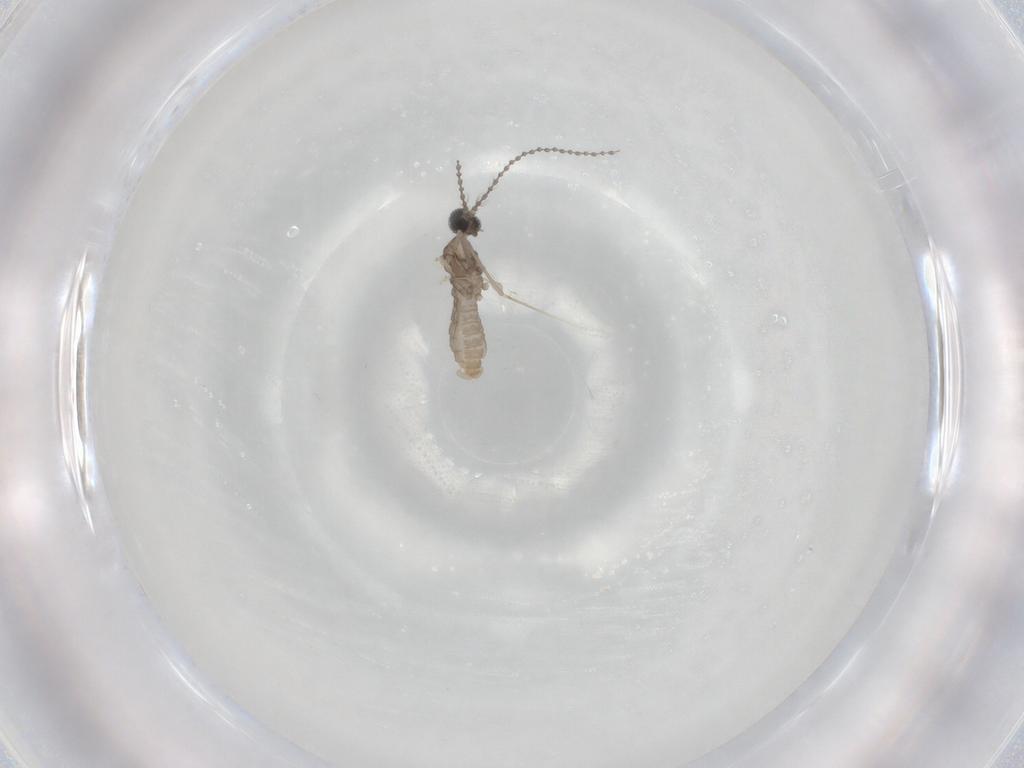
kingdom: Animalia
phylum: Arthropoda
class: Insecta
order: Diptera
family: Cecidomyiidae
